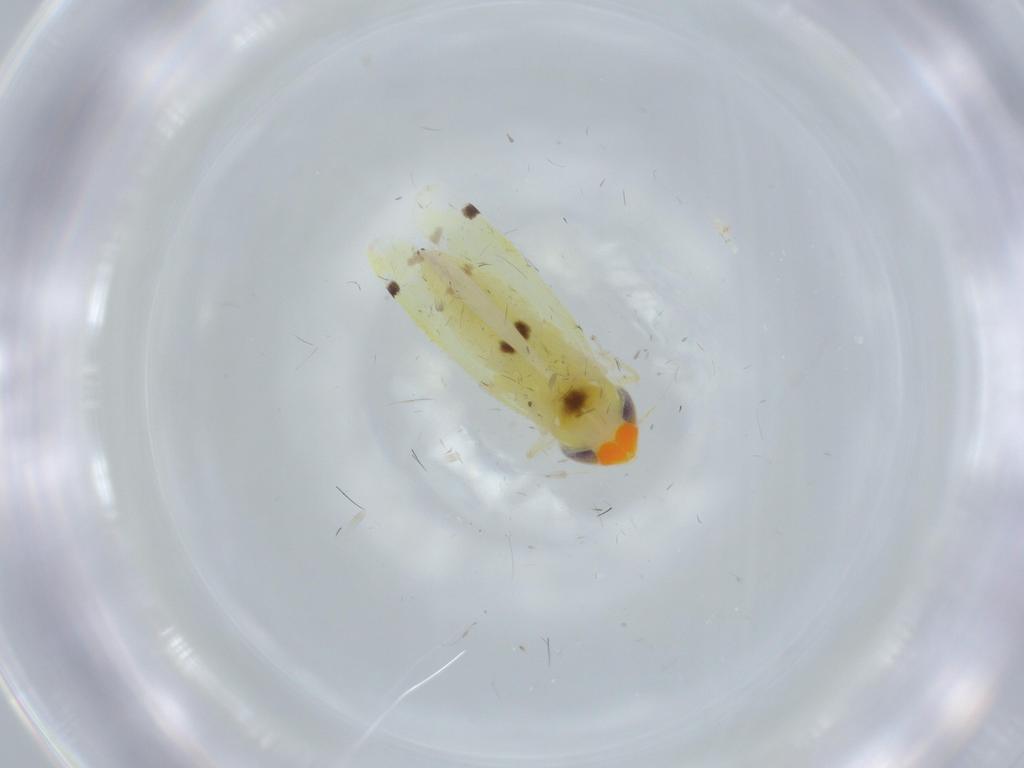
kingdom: Animalia
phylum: Arthropoda
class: Insecta
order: Hemiptera
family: Cicadellidae
